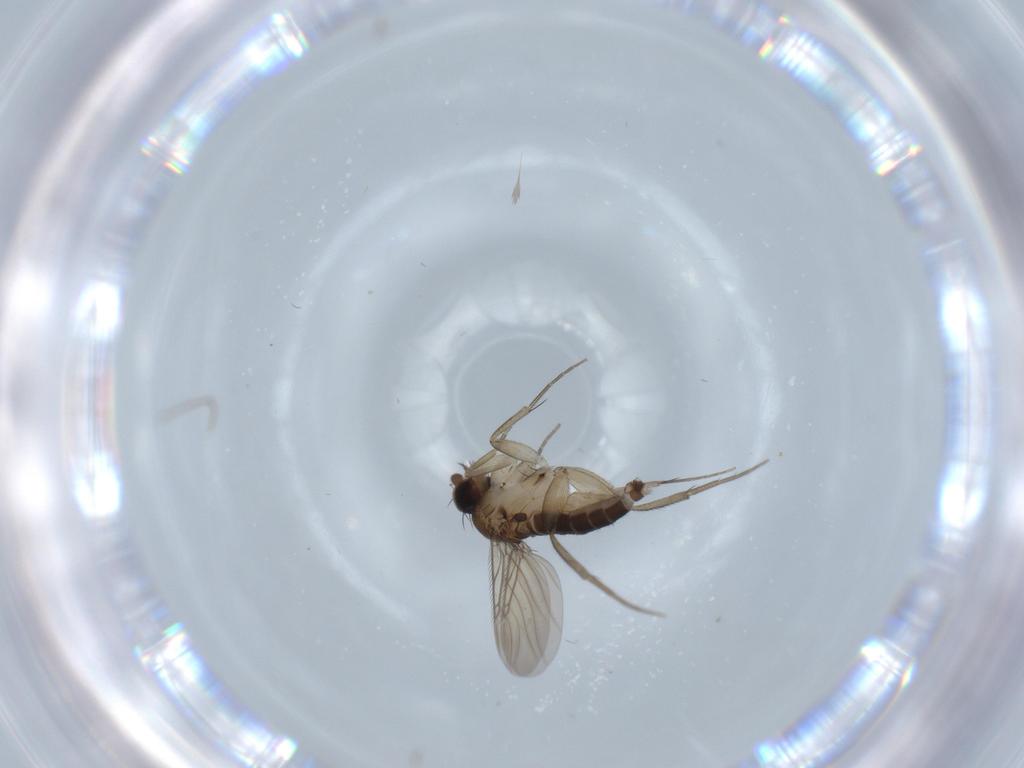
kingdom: Animalia
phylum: Arthropoda
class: Insecta
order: Diptera
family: Phoridae
